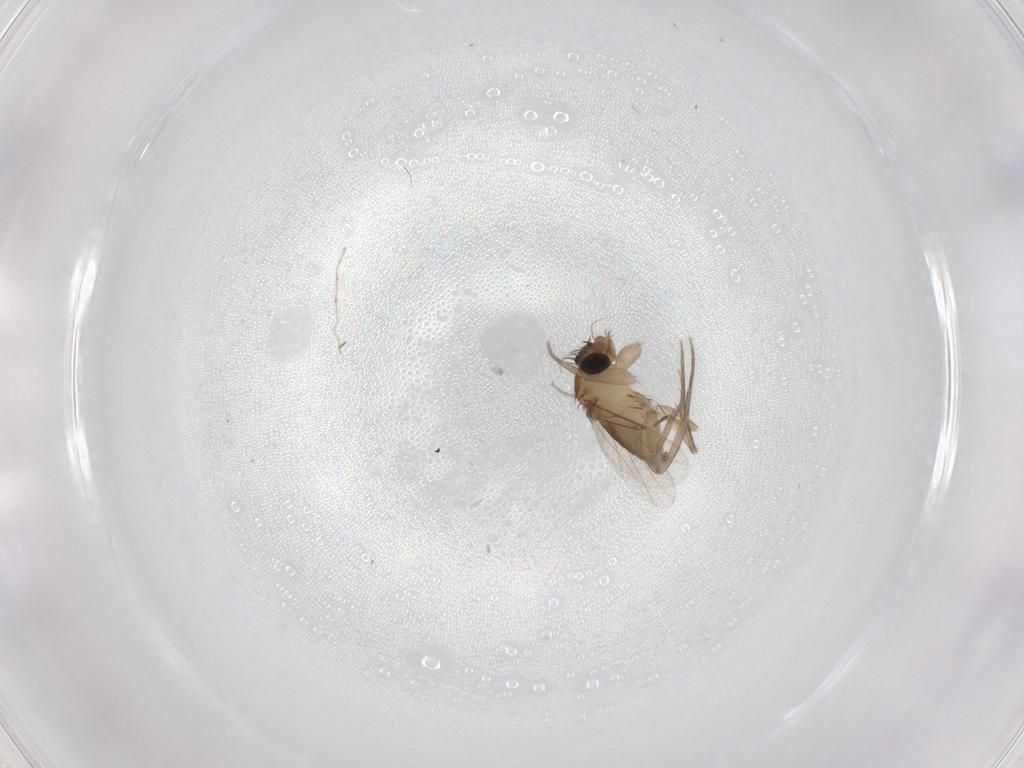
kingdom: Animalia
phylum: Arthropoda
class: Insecta
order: Diptera
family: Phoridae
